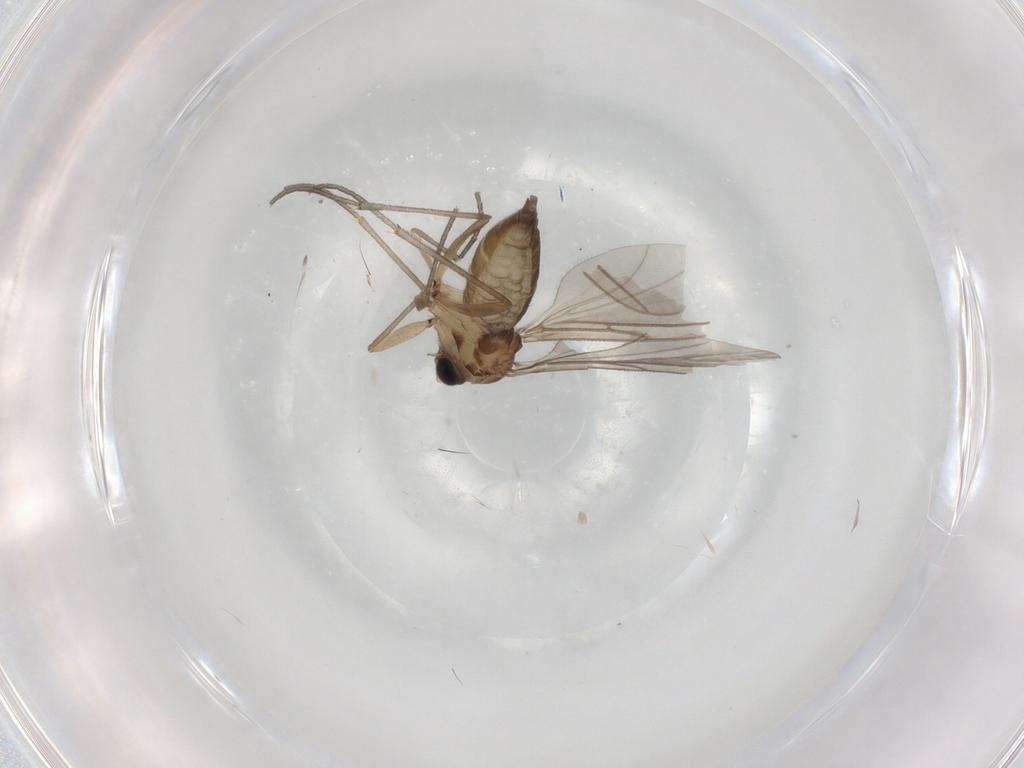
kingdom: Animalia
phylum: Arthropoda
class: Insecta
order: Diptera
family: Sciaridae
